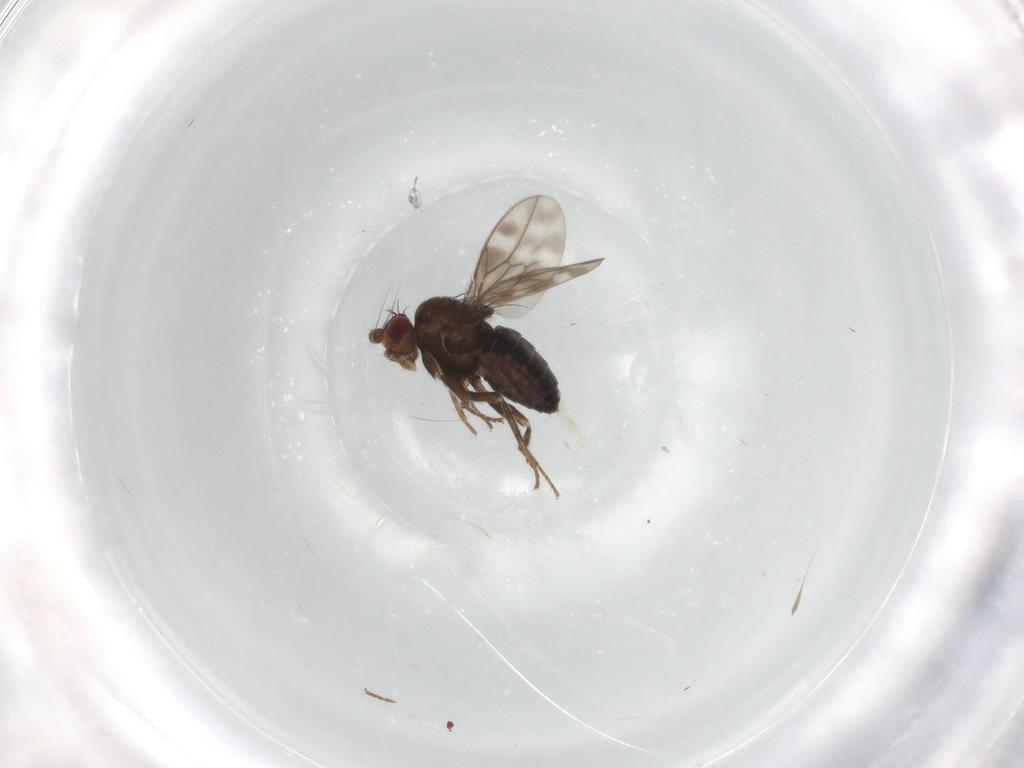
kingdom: Animalia
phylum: Arthropoda
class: Insecta
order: Diptera
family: Sphaeroceridae
